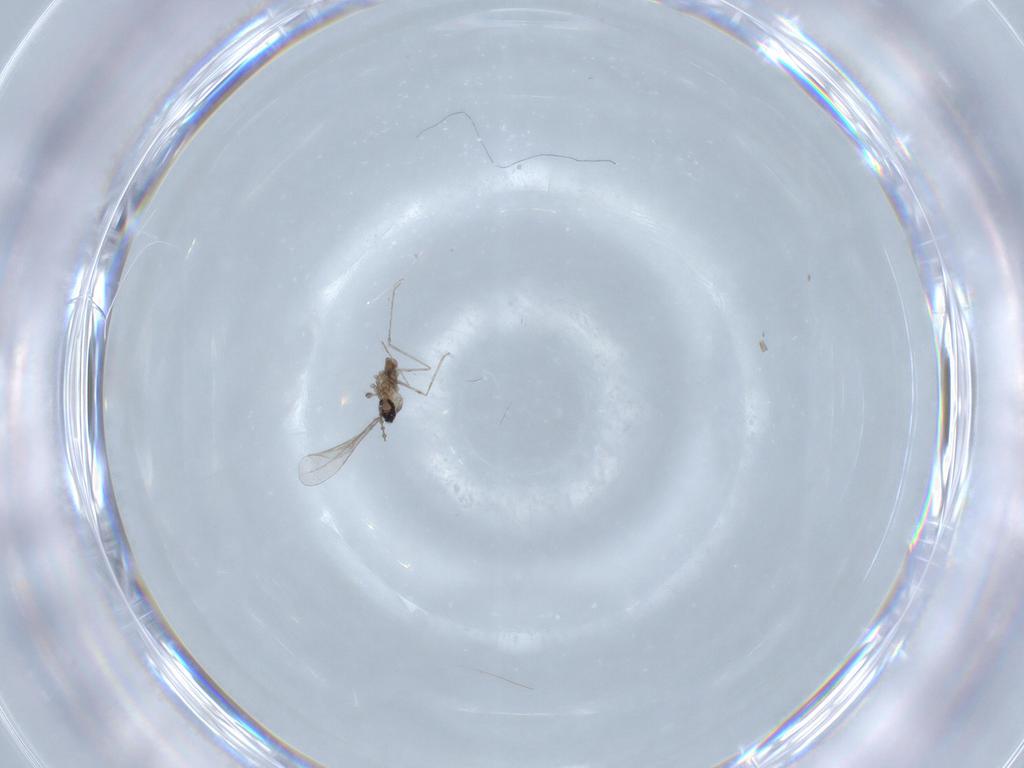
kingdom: Animalia
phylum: Arthropoda
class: Insecta
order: Diptera
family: Cecidomyiidae
